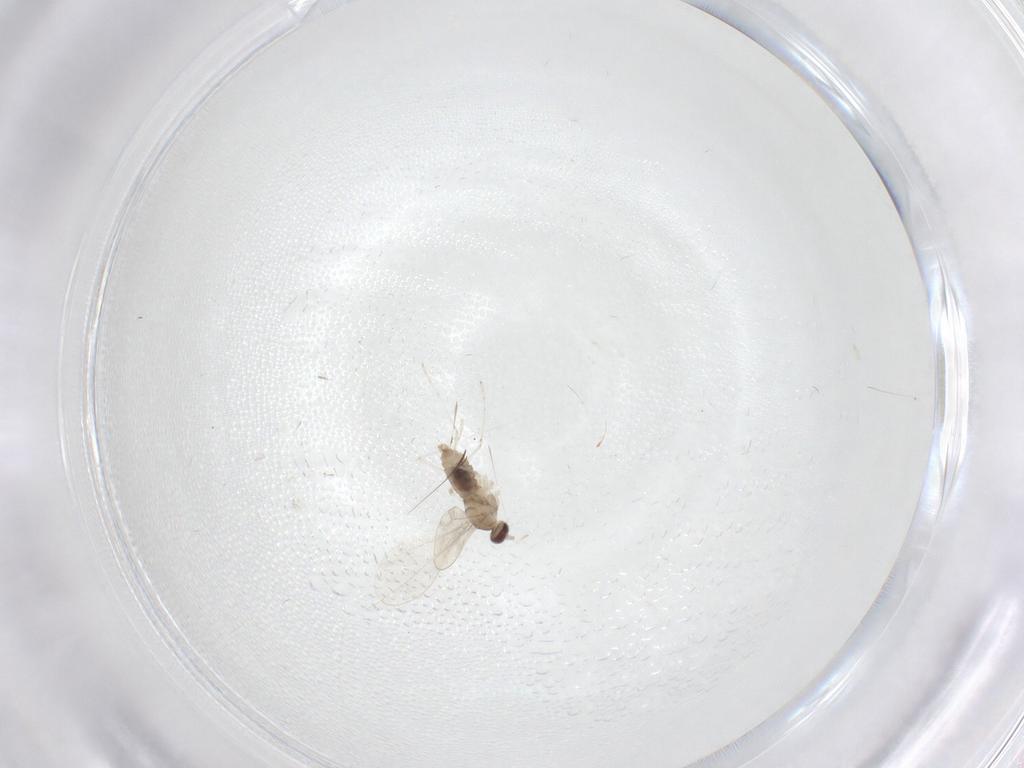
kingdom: Animalia
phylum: Arthropoda
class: Insecta
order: Diptera
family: Cecidomyiidae
